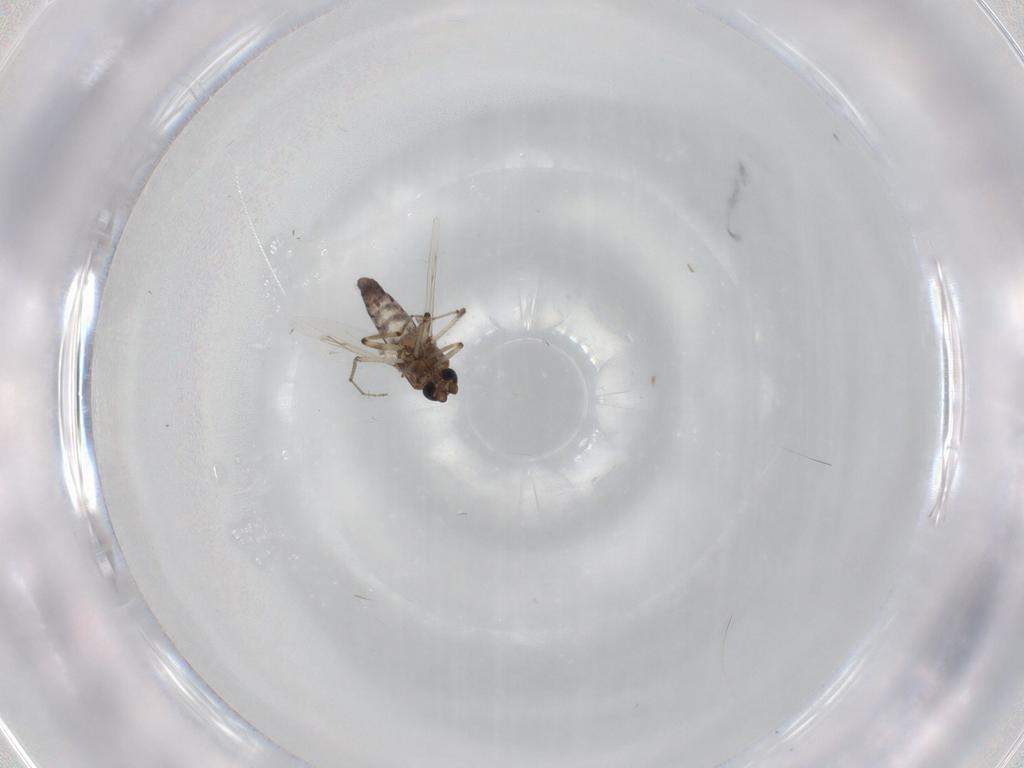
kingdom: Animalia
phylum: Arthropoda
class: Insecta
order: Diptera
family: Ceratopogonidae
